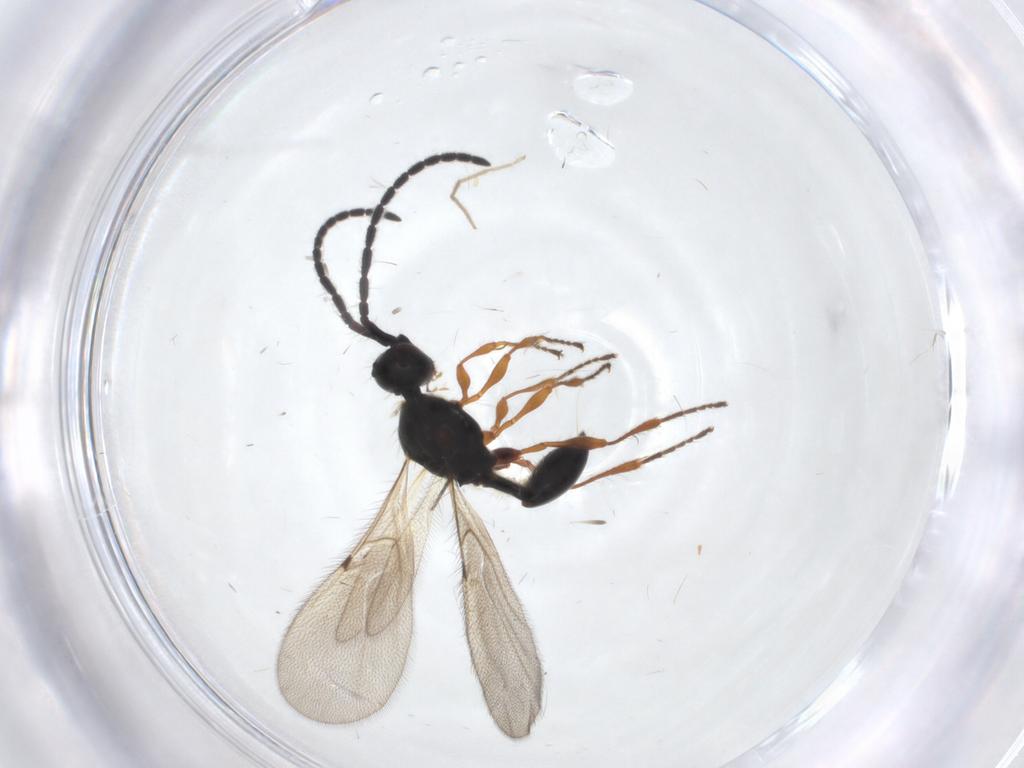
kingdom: Animalia
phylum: Arthropoda
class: Insecta
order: Hymenoptera
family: Diapriidae
